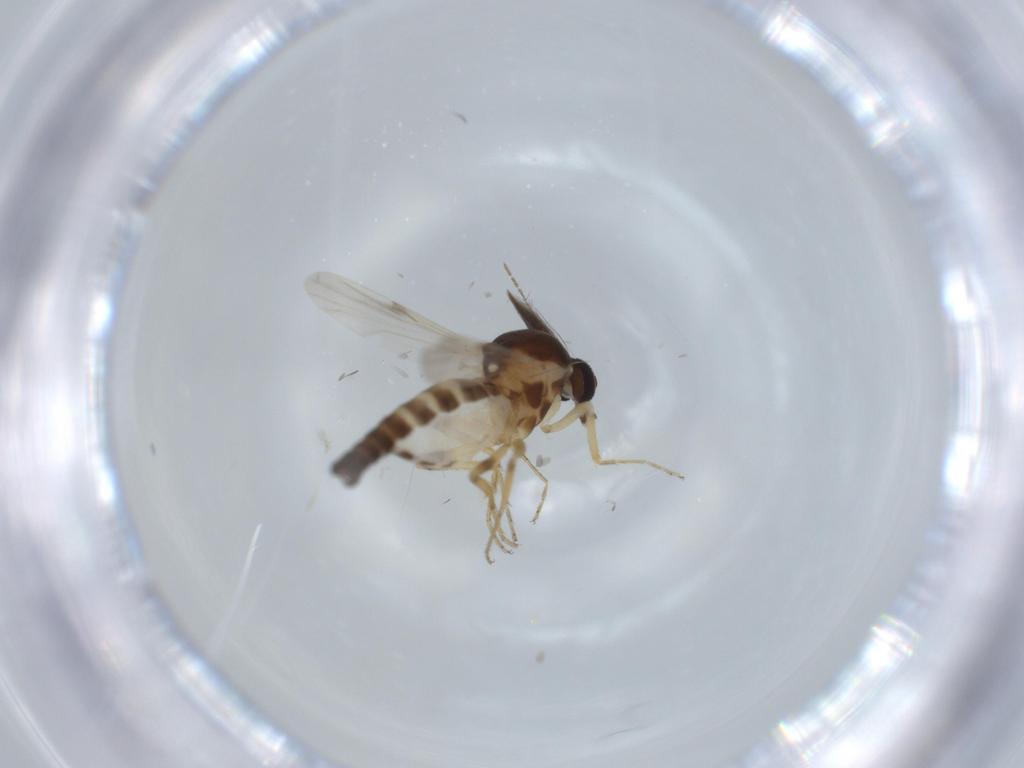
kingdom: Animalia
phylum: Arthropoda
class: Insecta
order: Diptera
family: Ceratopogonidae
